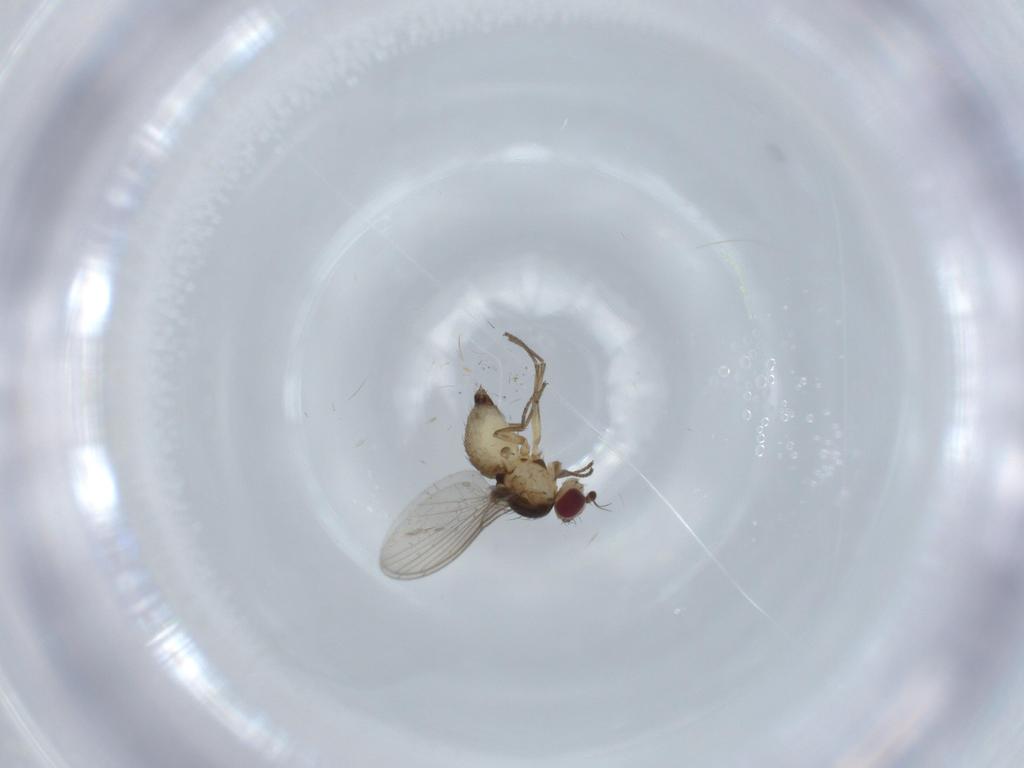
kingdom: Animalia
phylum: Arthropoda
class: Insecta
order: Diptera
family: Agromyzidae
